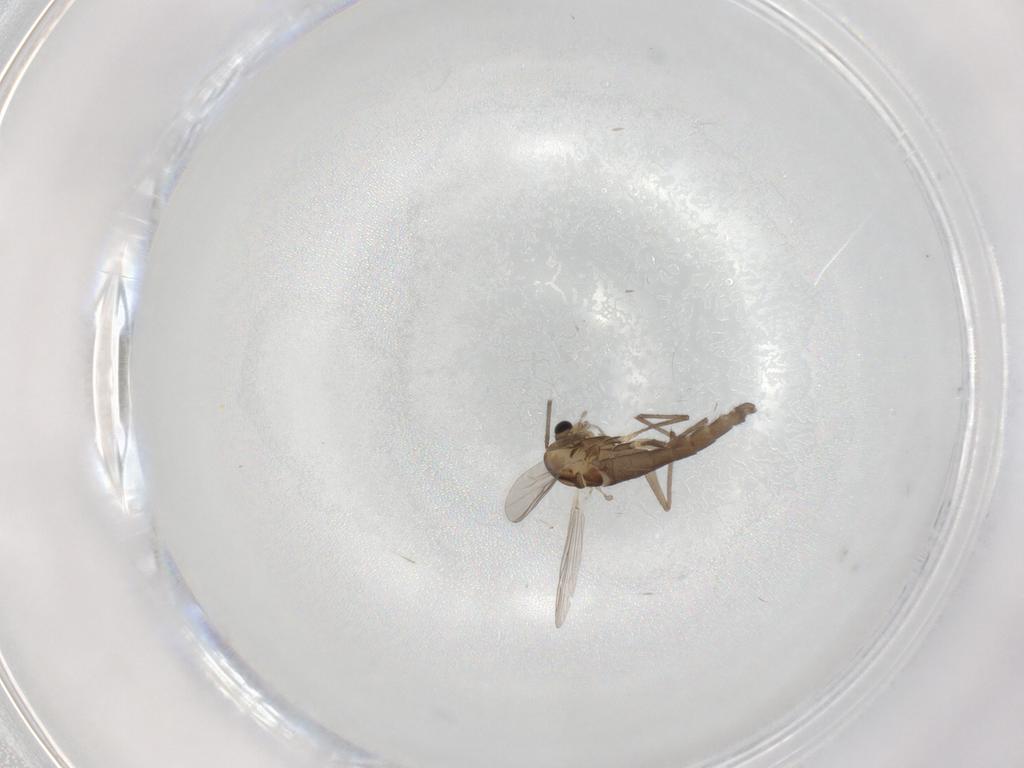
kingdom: Animalia
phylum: Arthropoda
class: Insecta
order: Diptera
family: Chironomidae
